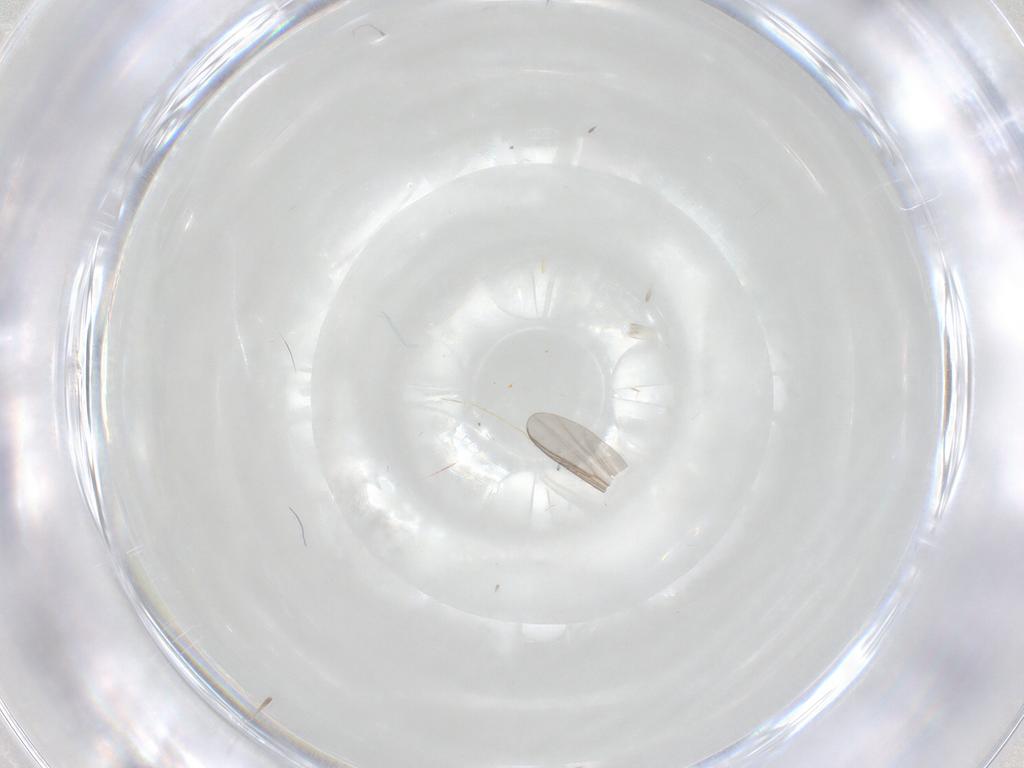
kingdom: Animalia
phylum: Arthropoda
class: Insecta
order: Diptera
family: Chironomidae
